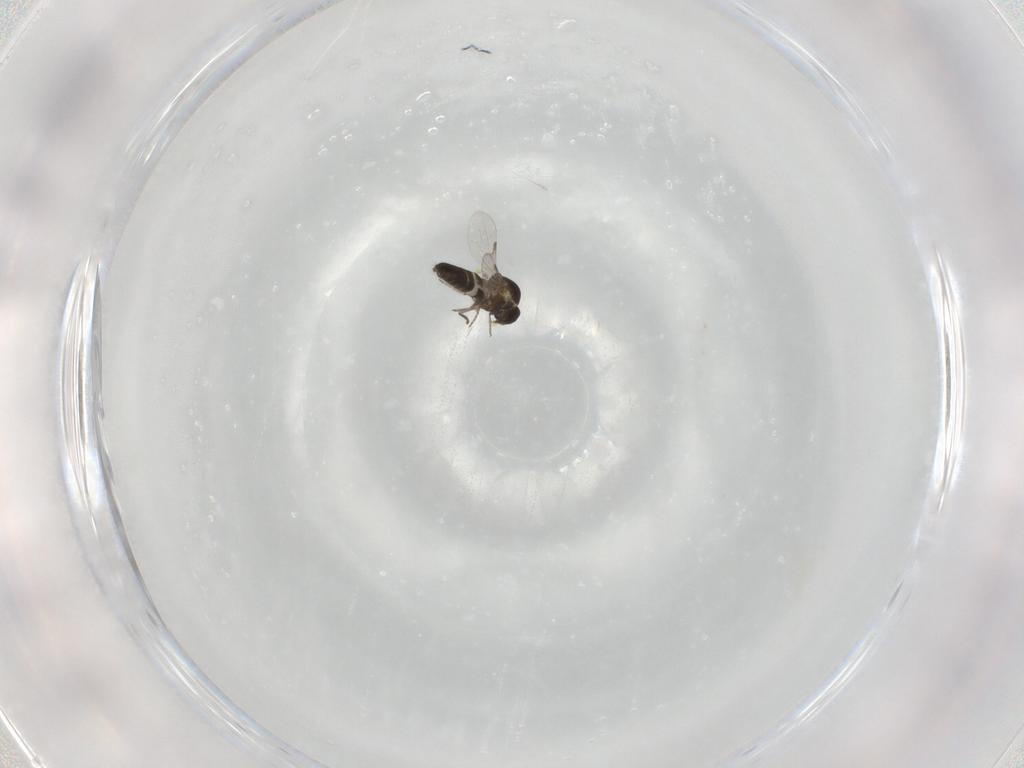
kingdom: Animalia
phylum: Arthropoda
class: Insecta
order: Diptera
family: Ceratopogonidae
